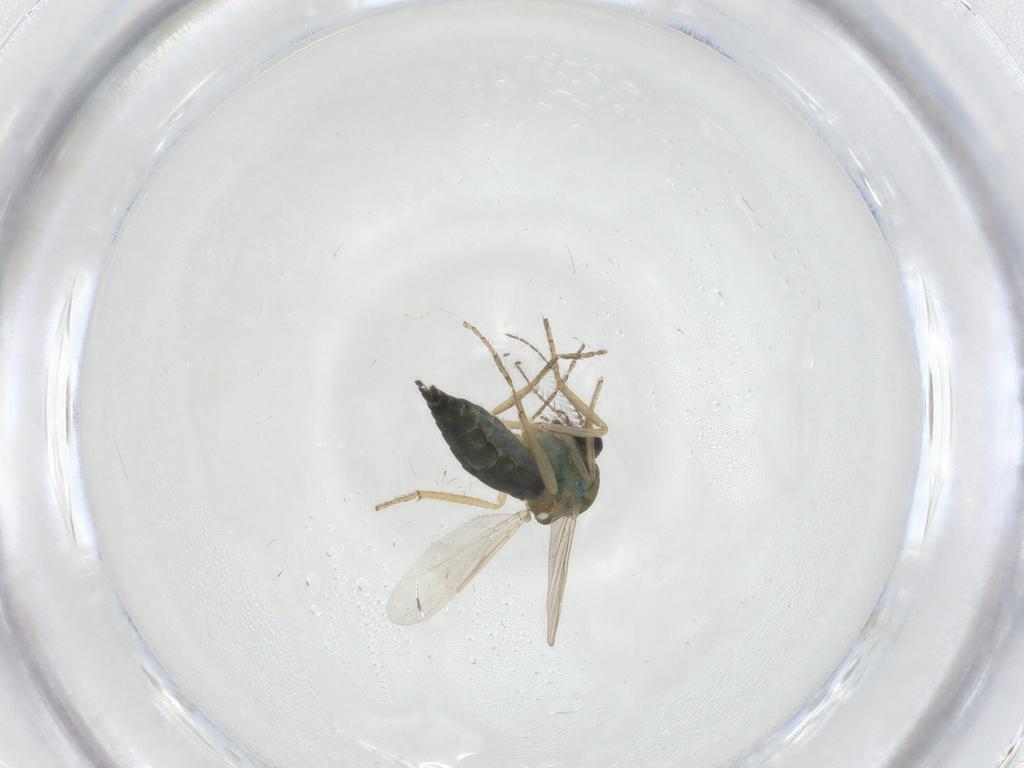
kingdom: Animalia
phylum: Arthropoda
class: Insecta
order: Diptera
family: Ceratopogonidae
